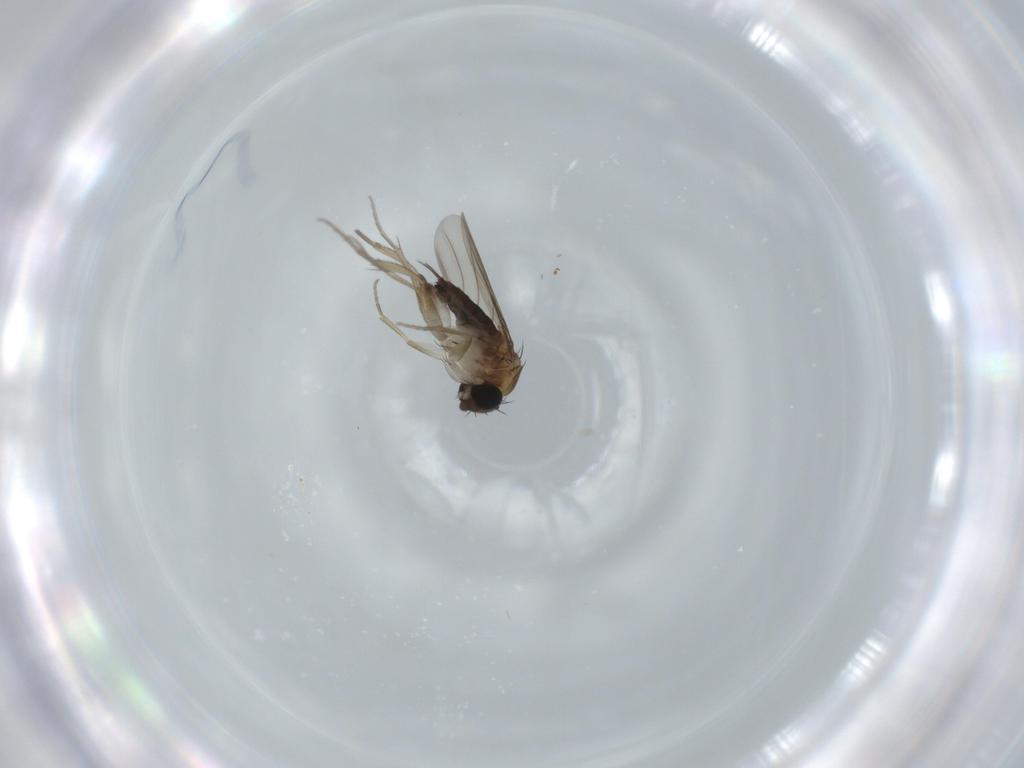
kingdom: Animalia
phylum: Arthropoda
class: Insecta
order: Diptera
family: Phoridae
